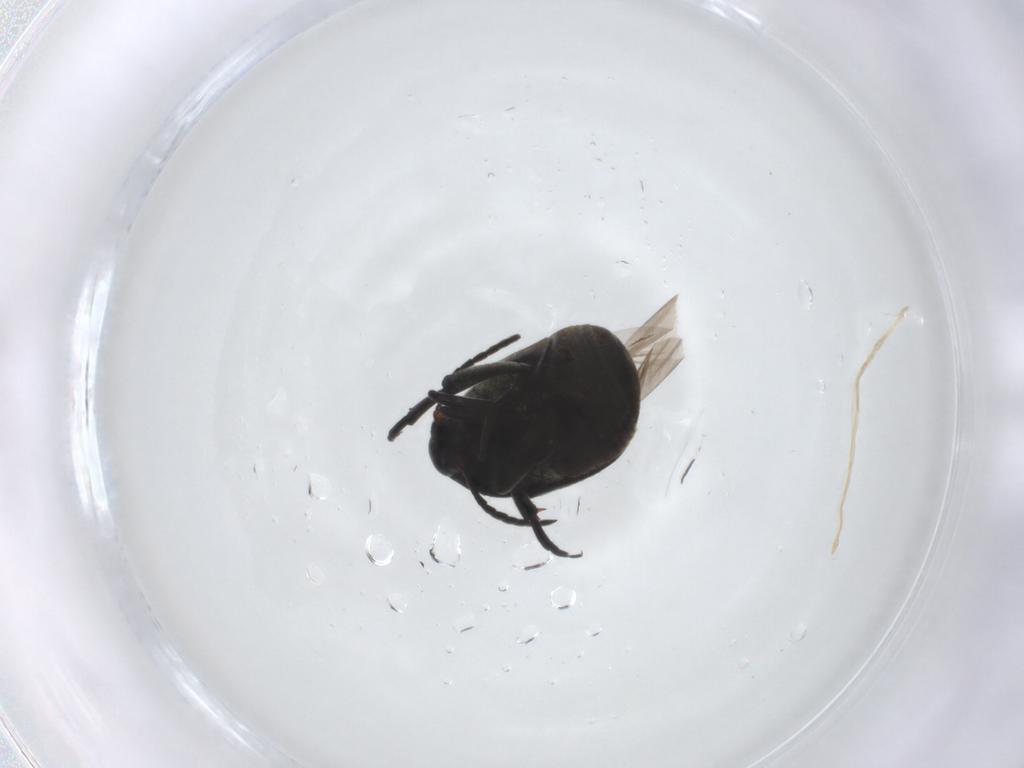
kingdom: Animalia
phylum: Arthropoda
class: Insecta
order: Coleoptera
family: Chrysomelidae
